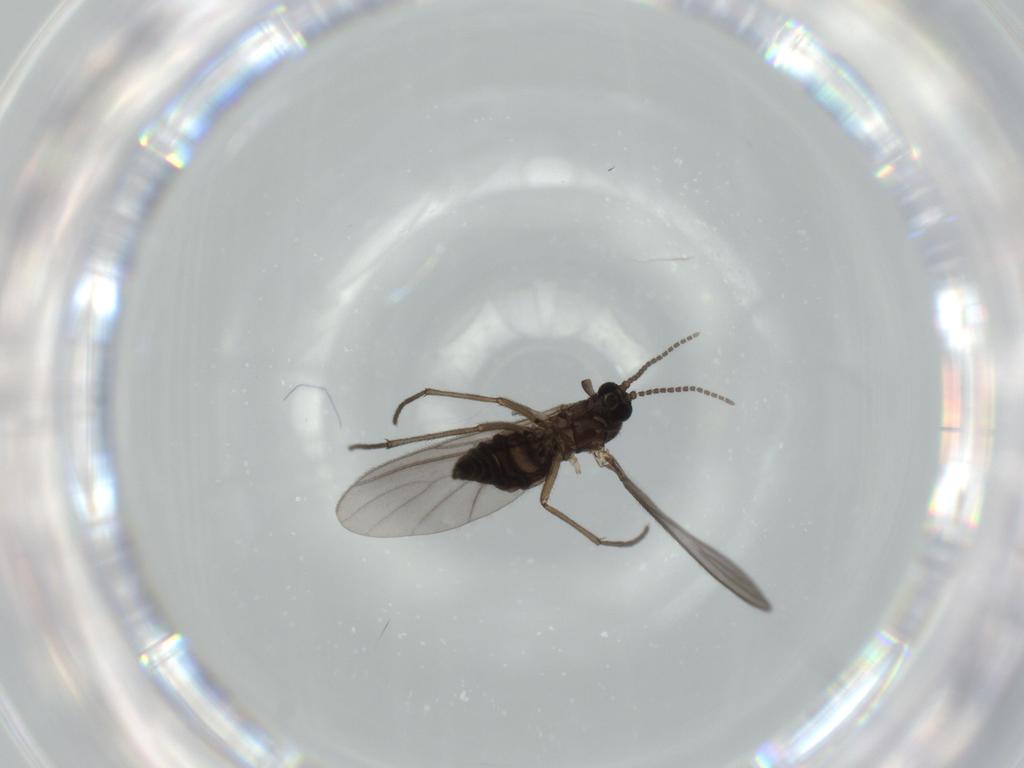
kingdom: Animalia
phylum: Arthropoda
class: Insecta
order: Diptera
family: Sciaridae
